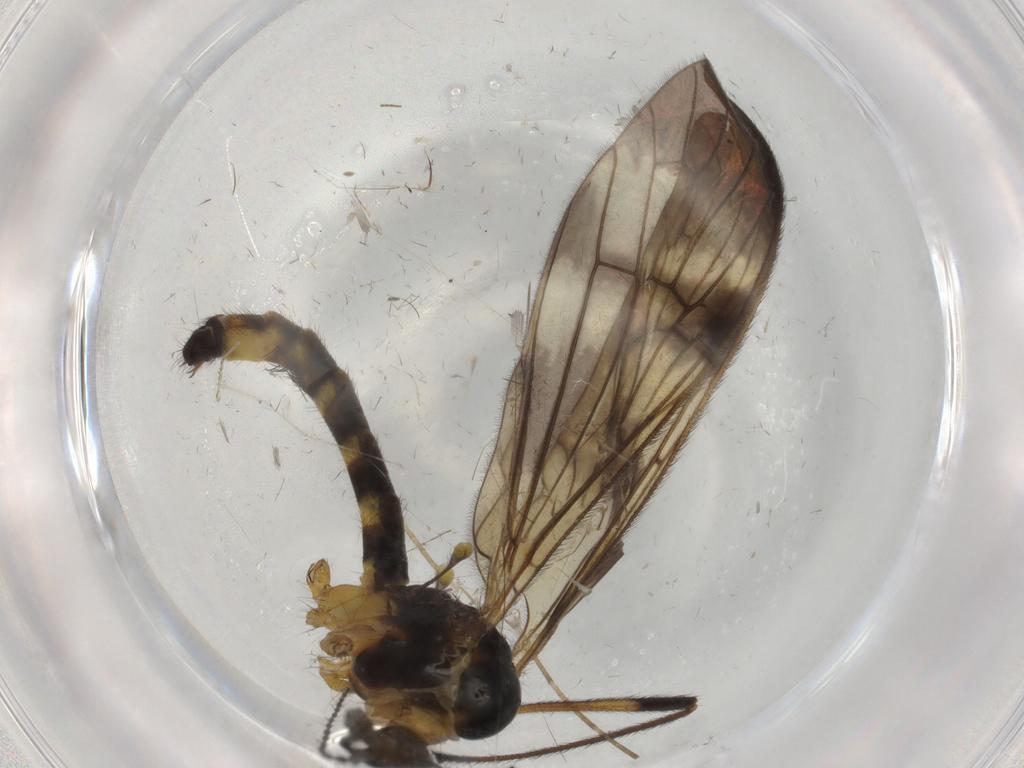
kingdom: Animalia
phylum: Arthropoda
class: Insecta
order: Diptera
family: Limoniidae
